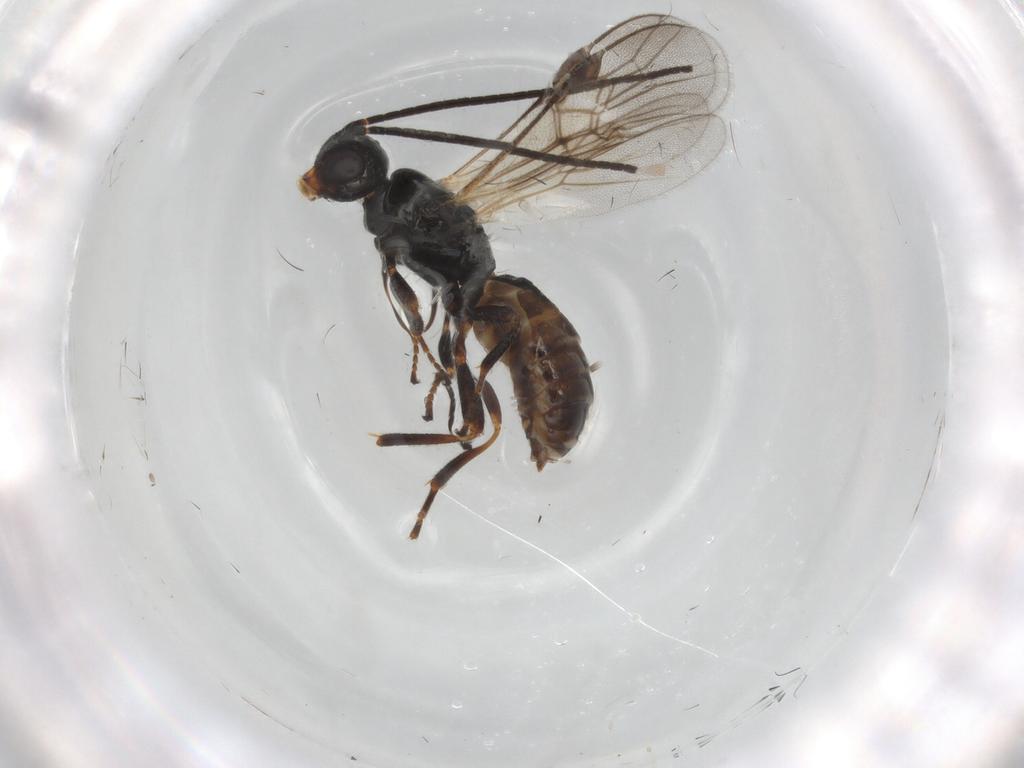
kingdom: Animalia
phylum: Arthropoda
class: Insecta
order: Hymenoptera
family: Braconidae
